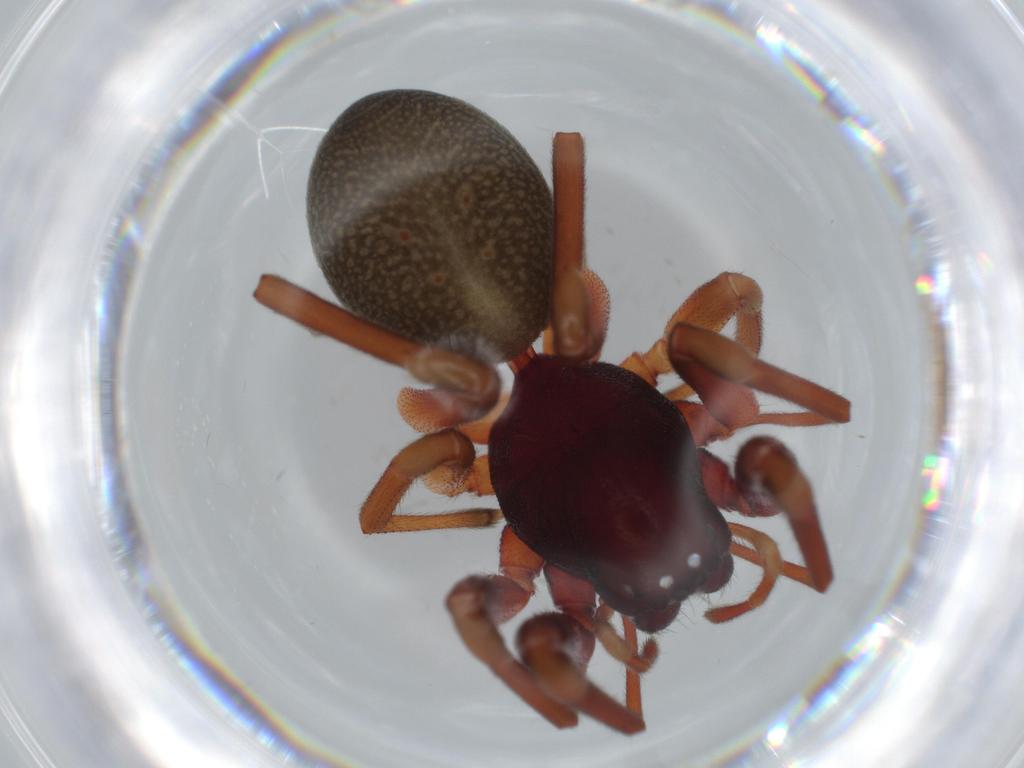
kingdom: Animalia
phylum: Arthropoda
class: Arachnida
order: Araneae
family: Trachelidae
